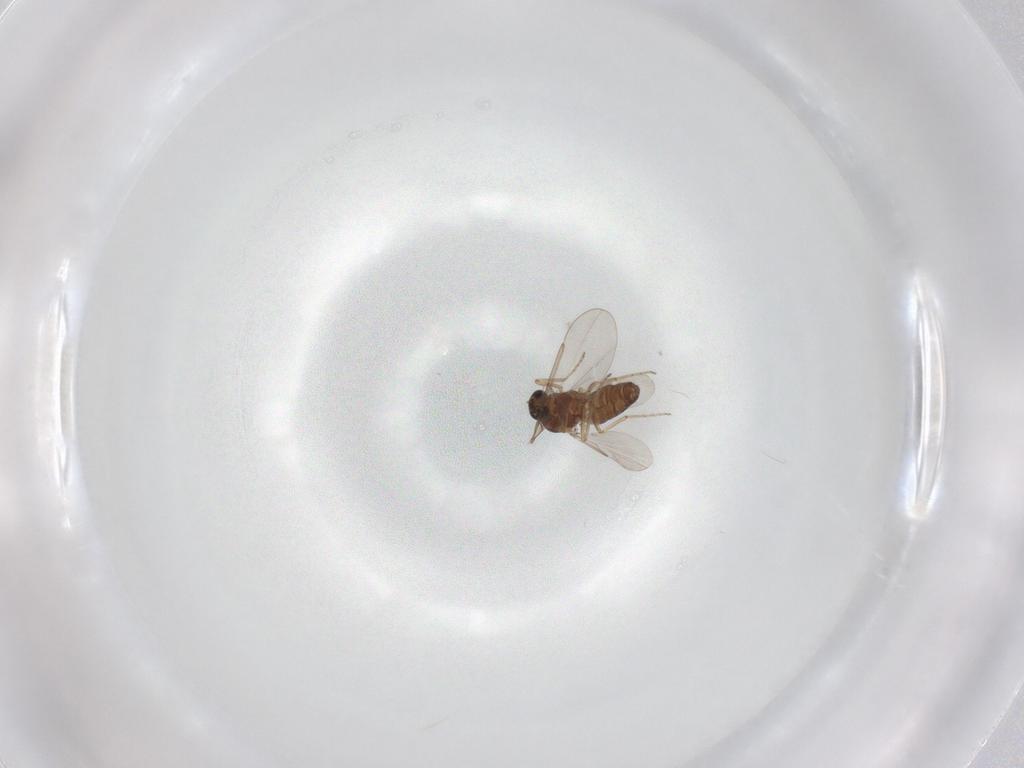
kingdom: Animalia
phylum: Arthropoda
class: Insecta
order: Diptera
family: Ceratopogonidae
